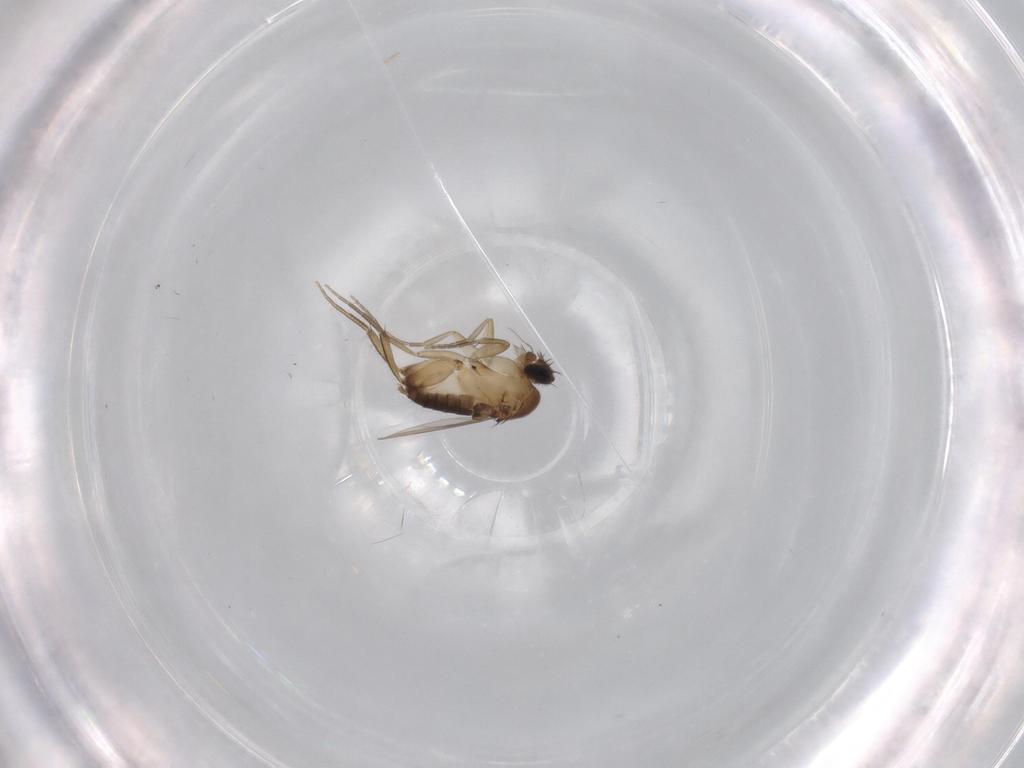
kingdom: Animalia
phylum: Arthropoda
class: Insecta
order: Diptera
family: Phoridae
